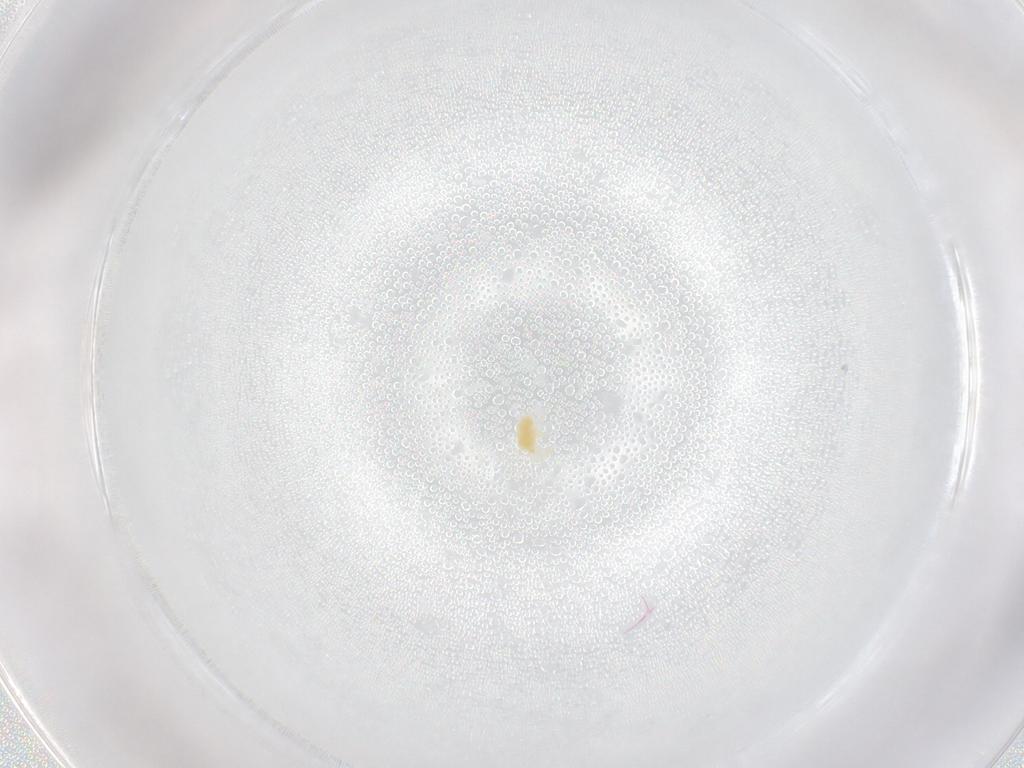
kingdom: Animalia
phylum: Arthropoda
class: Arachnida
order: Trombidiformes
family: Tetranychidae
